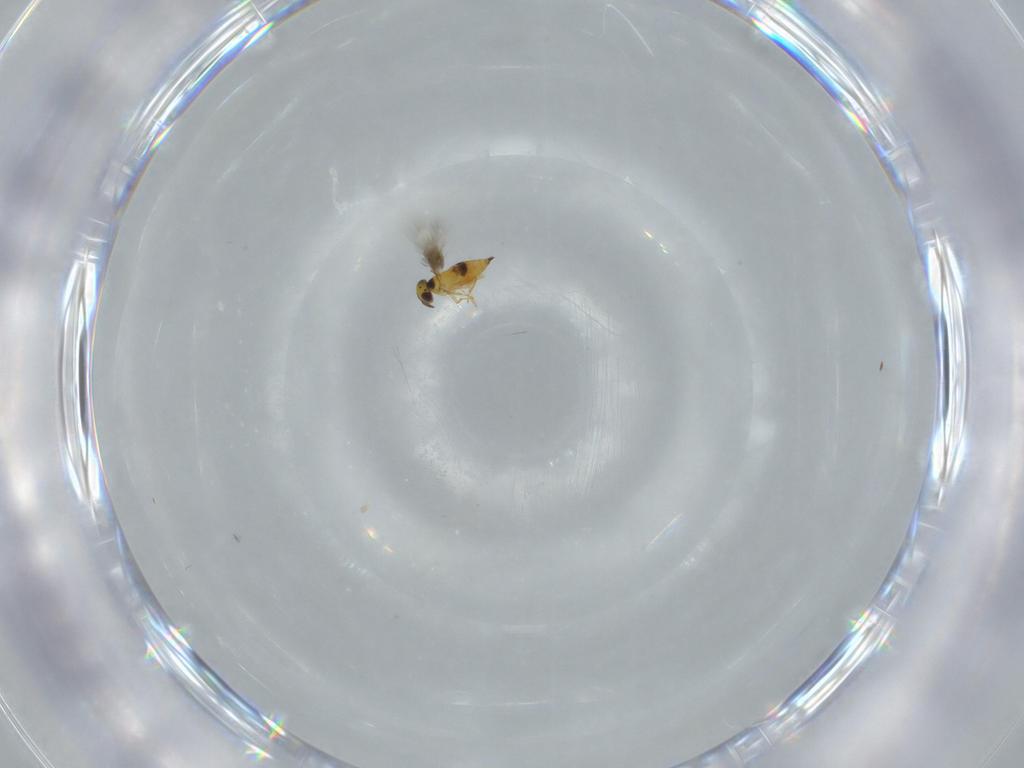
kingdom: Animalia
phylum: Arthropoda
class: Insecta
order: Hymenoptera
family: Signiphoridae
